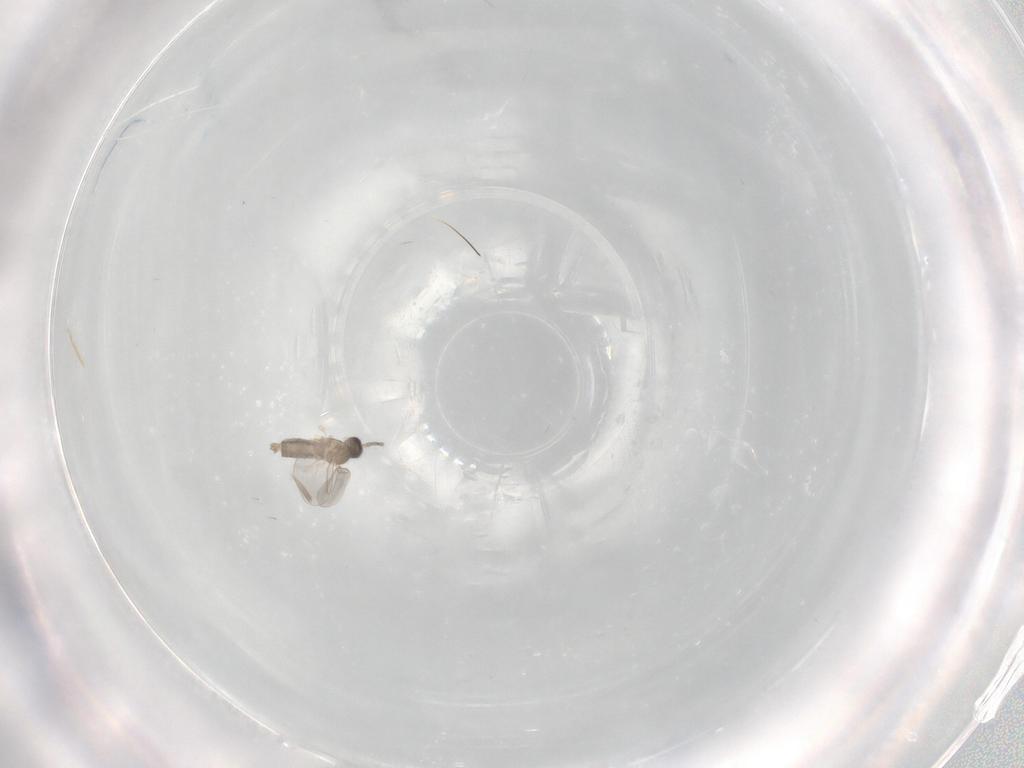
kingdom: Animalia
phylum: Arthropoda
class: Insecta
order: Diptera
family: Cecidomyiidae
